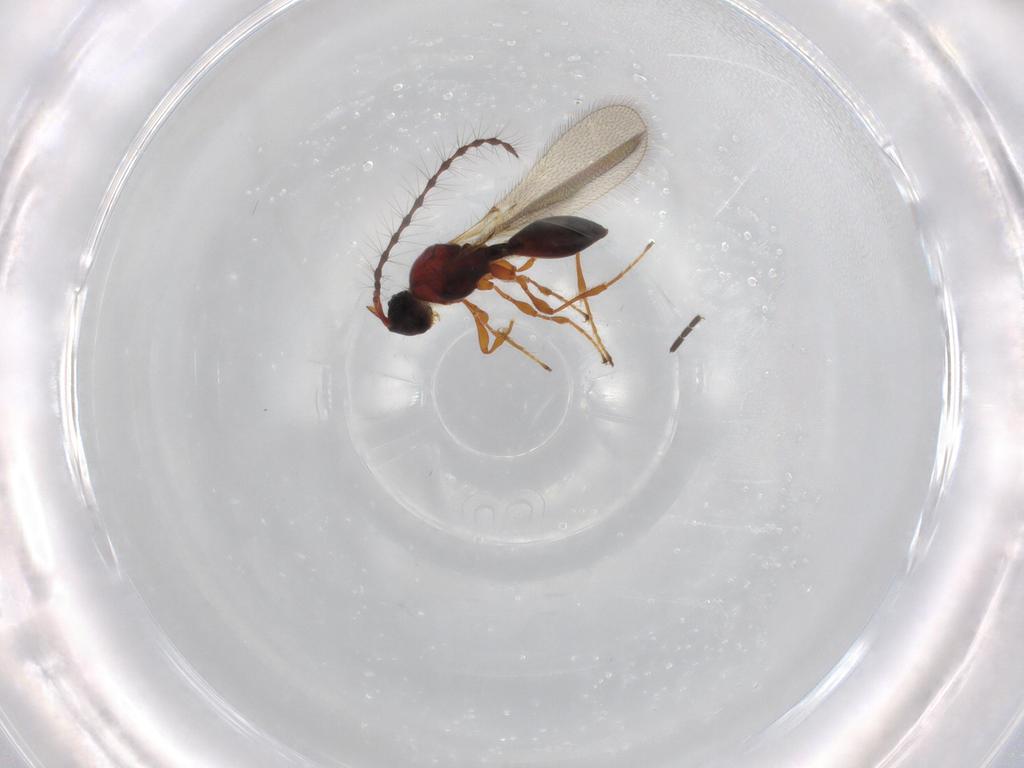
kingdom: Animalia
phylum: Arthropoda
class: Insecta
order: Hymenoptera
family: Diapriidae
